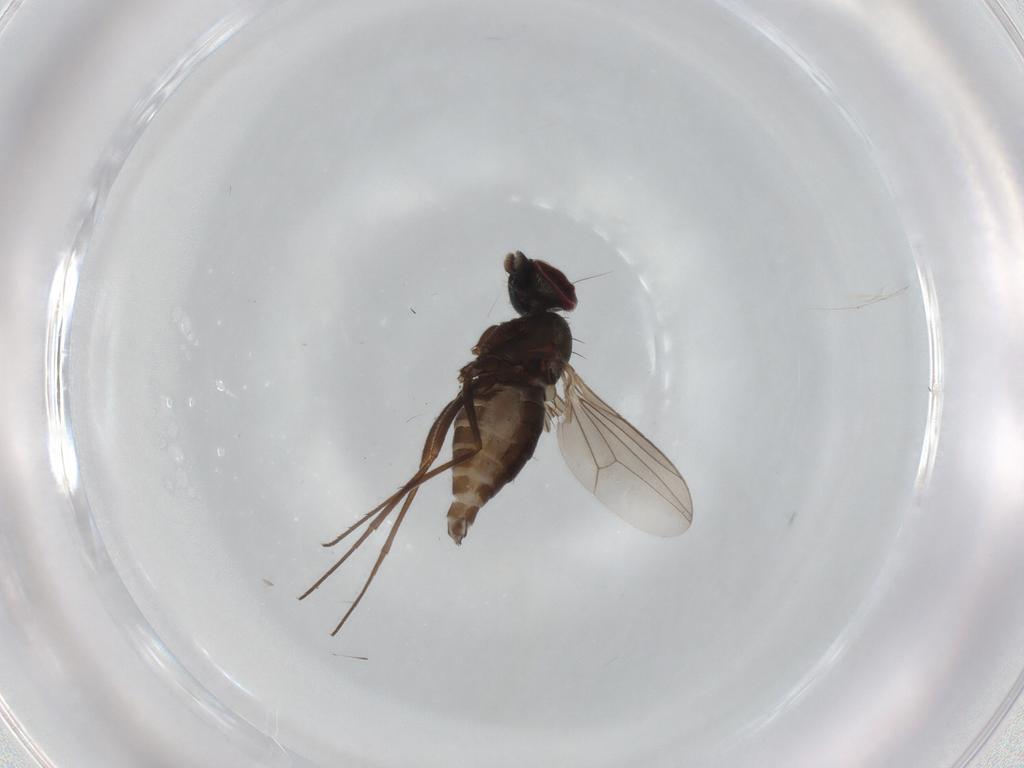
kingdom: Animalia
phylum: Arthropoda
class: Insecta
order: Diptera
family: Dolichopodidae
